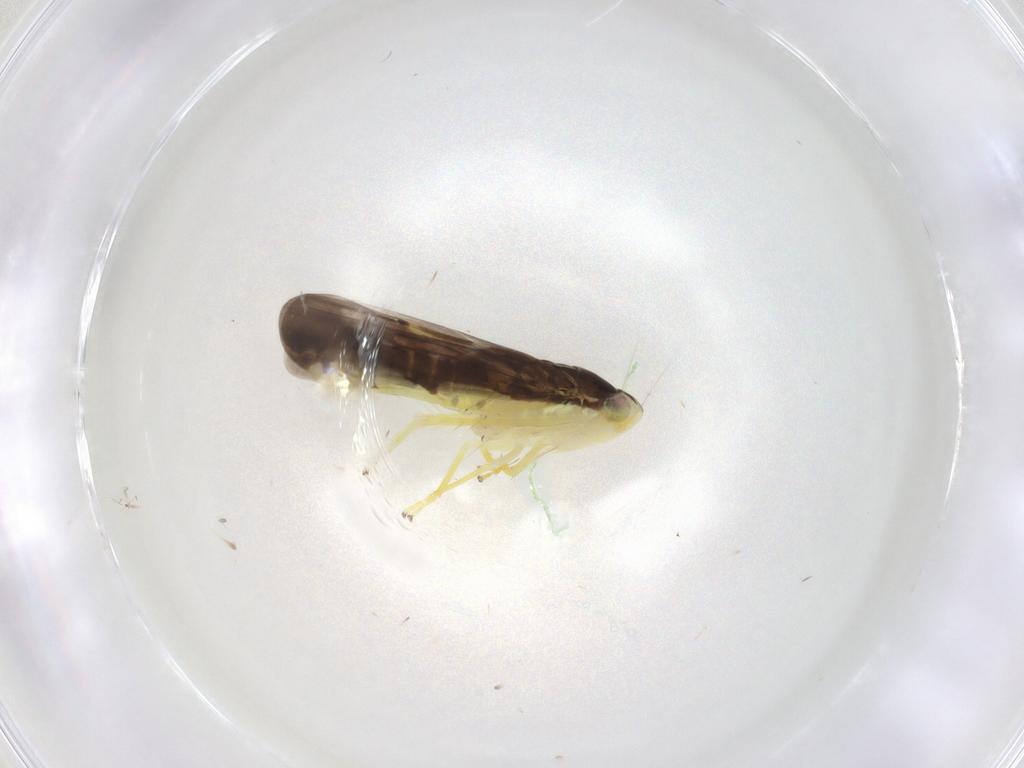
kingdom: Animalia
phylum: Arthropoda
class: Insecta
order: Hemiptera
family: Cicadellidae
